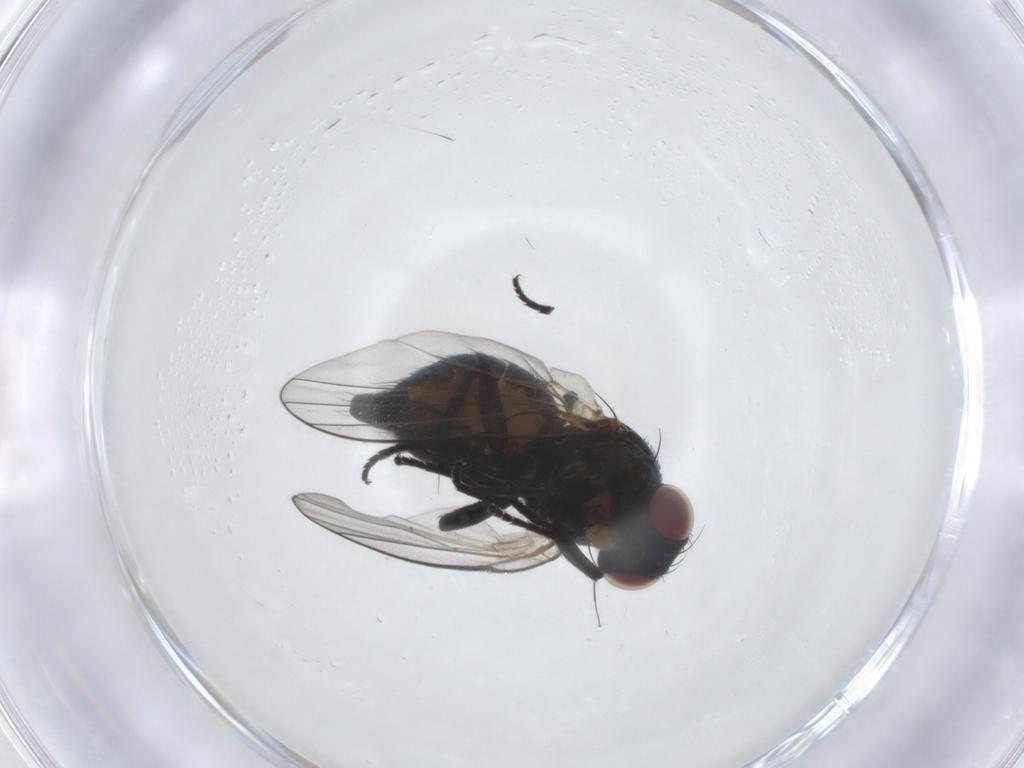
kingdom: Animalia
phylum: Arthropoda
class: Insecta
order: Diptera
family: Agromyzidae
